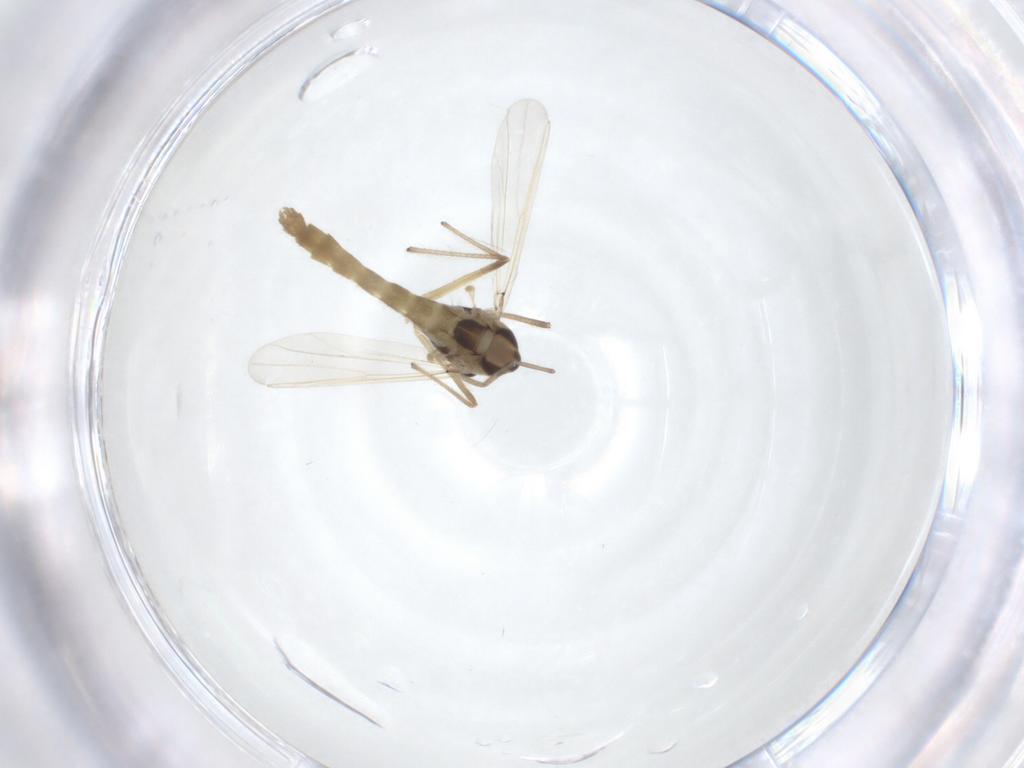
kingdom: Animalia
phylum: Arthropoda
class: Insecta
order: Diptera
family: Chironomidae
